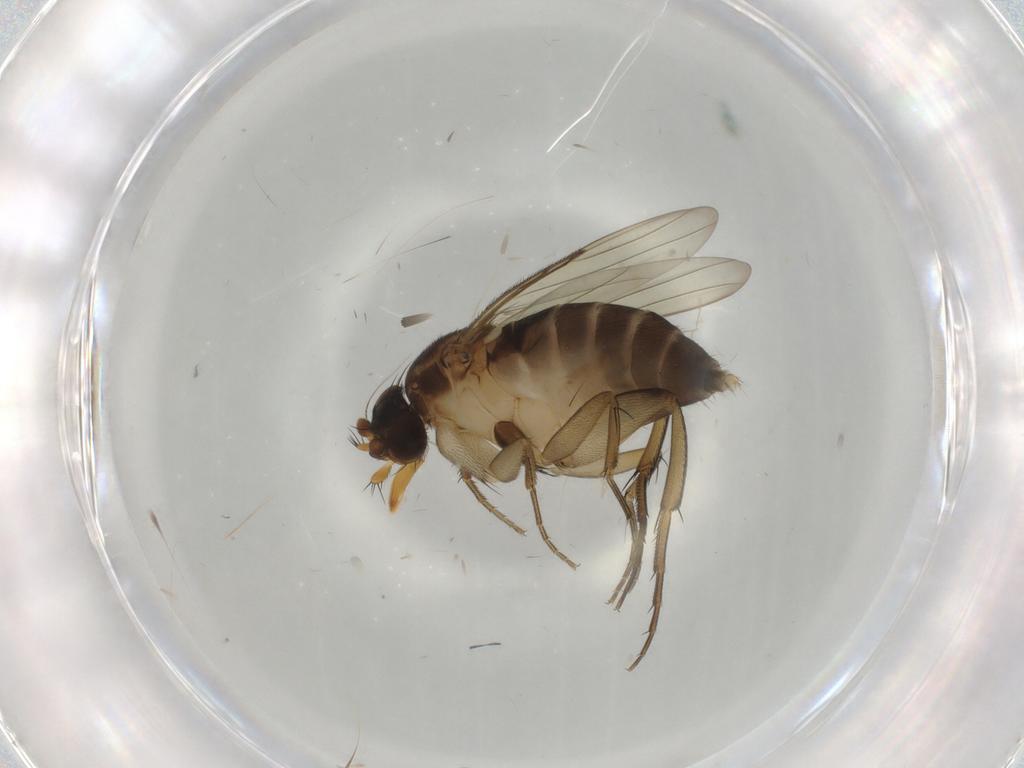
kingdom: Animalia
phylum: Arthropoda
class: Insecta
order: Diptera
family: Phoridae
